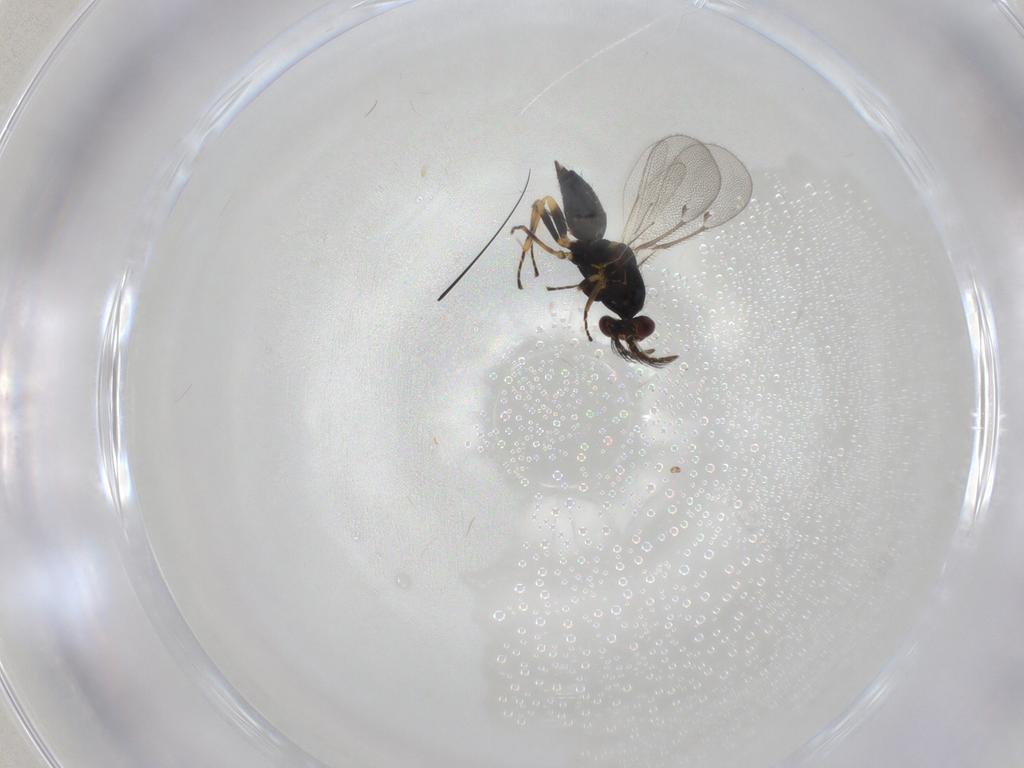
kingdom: Animalia
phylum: Arthropoda
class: Insecta
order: Hymenoptera
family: Eulophidae
